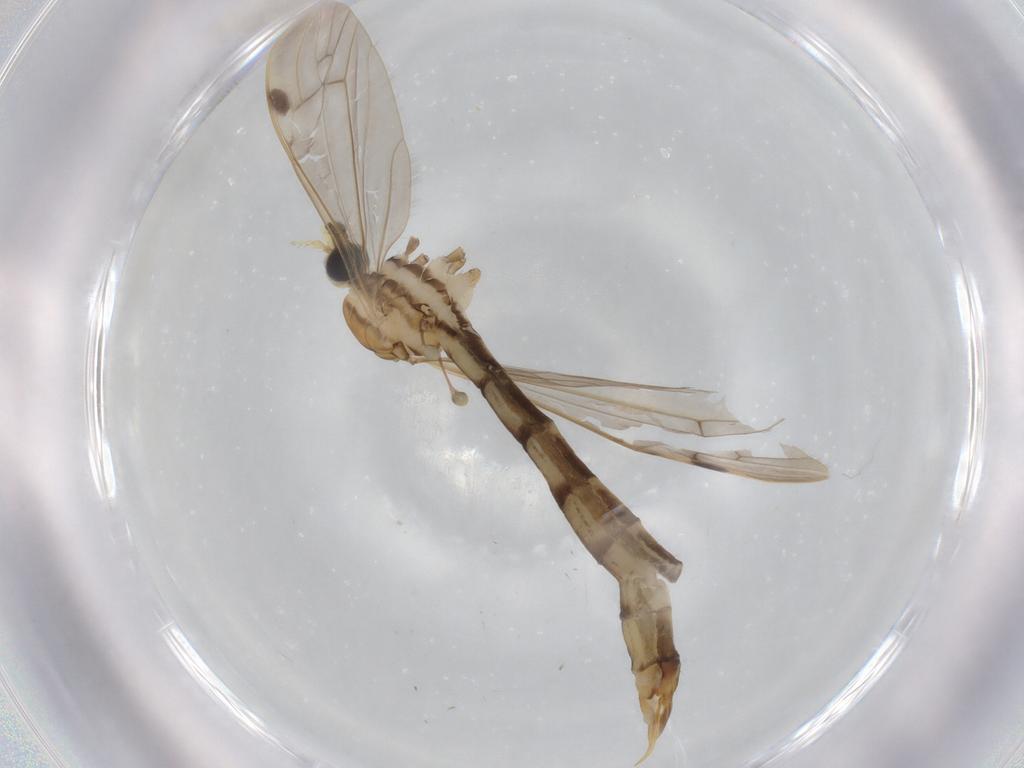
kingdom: Animalia
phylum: Arthropoda
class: Insecta
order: Diptera
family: Limoniidae
